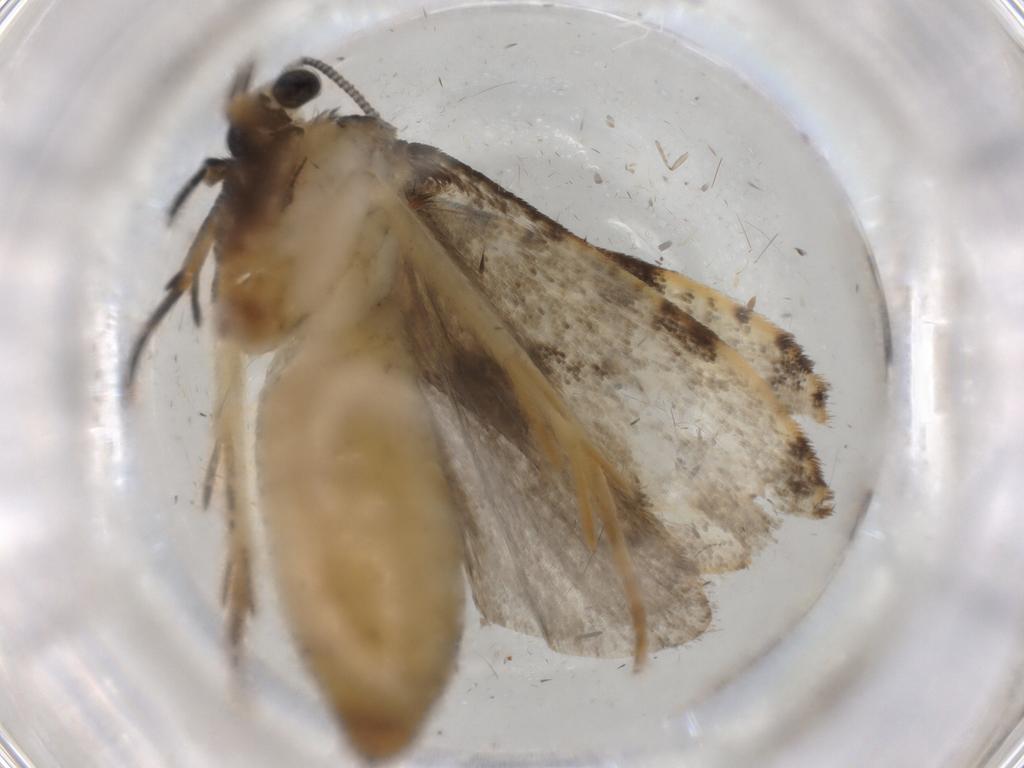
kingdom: Animalia
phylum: Arthropoda
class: Insecta
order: Lepidoptera
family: Tineidae
